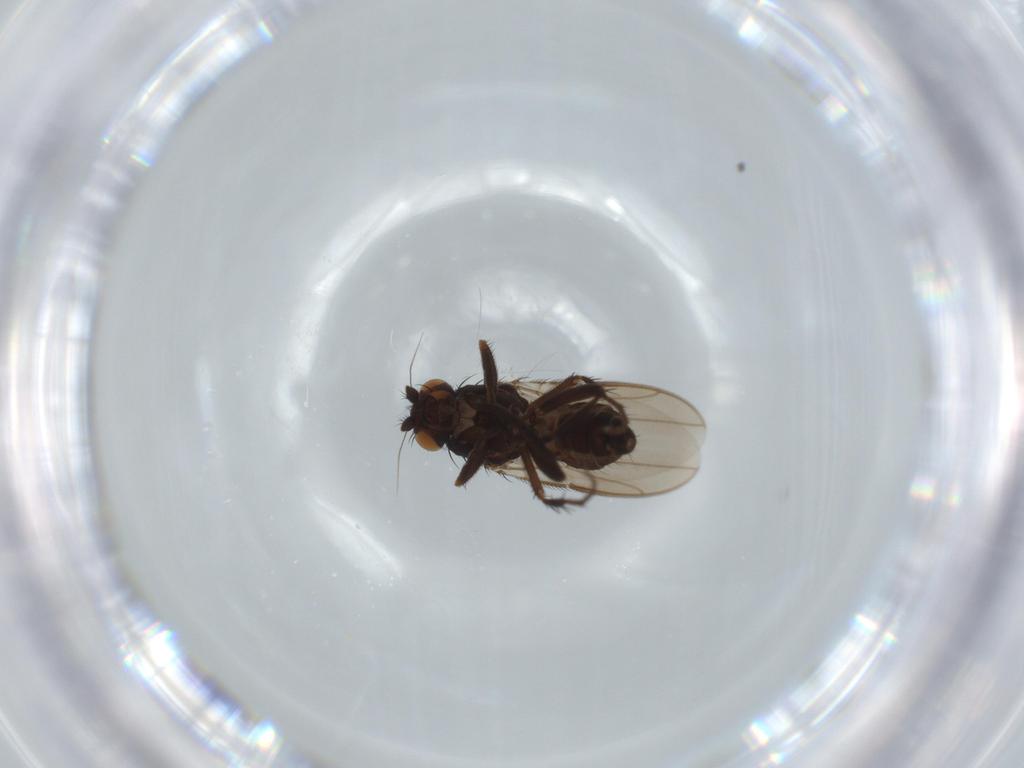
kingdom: Animalia
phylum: Arthropoda
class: Insecta
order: Diptera
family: Sphaeroceridae
